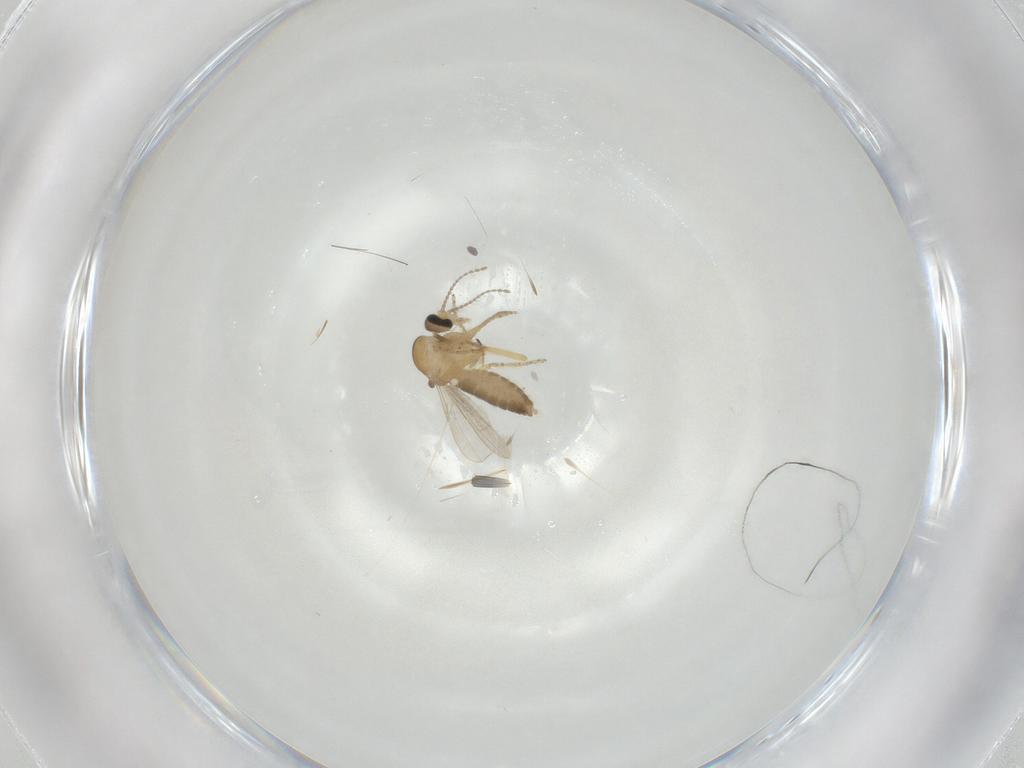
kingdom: Animalia
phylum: Arthropoda
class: Insecta
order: Diptera
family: Ceratopogonidae
